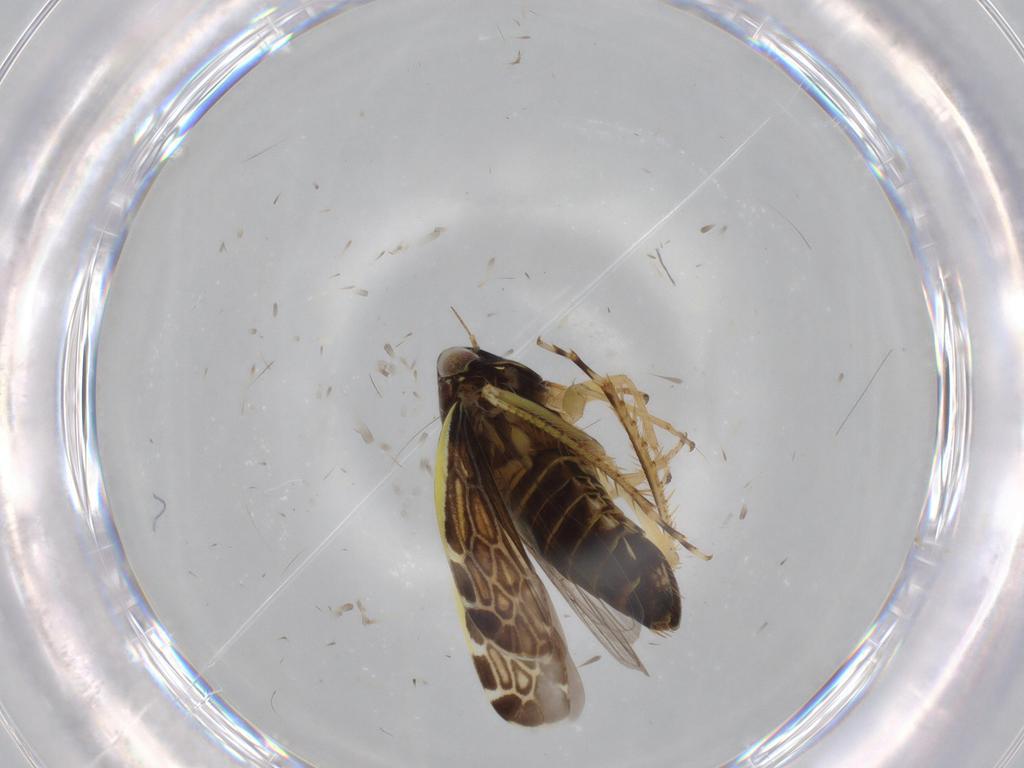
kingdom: Animalia
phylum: Arthropoda
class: Insecta
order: Hemiptera
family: Cicadellidae
